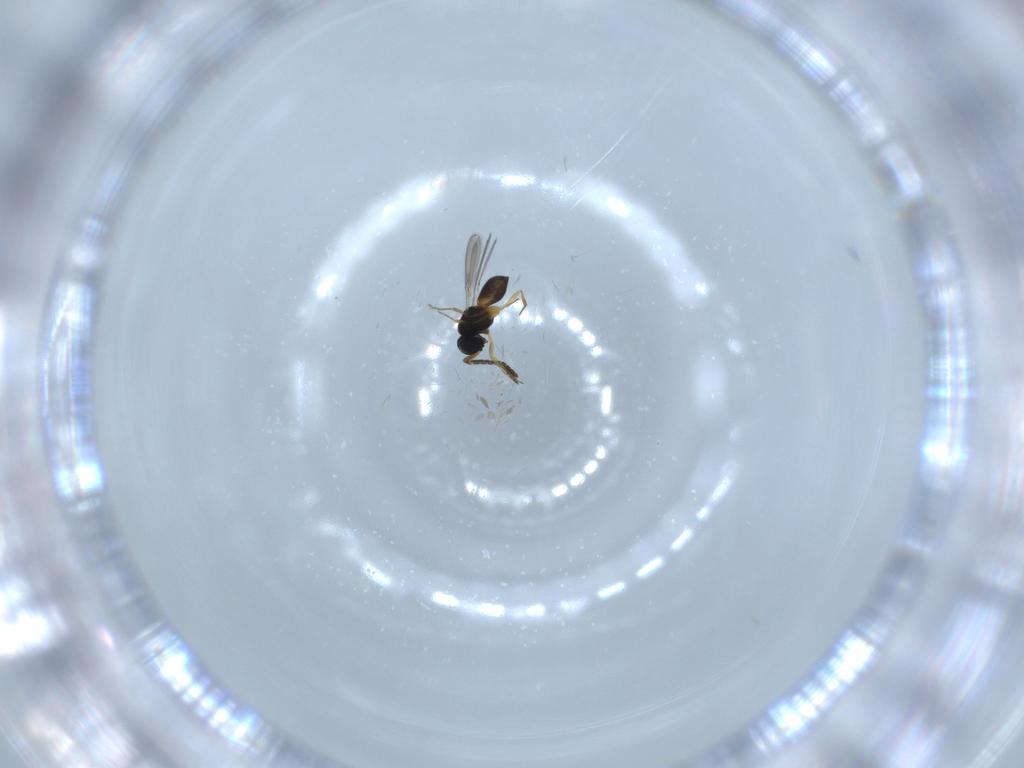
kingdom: Animalia
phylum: Arthropoda
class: Insecta
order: Hymenoptera
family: Scelionidae
